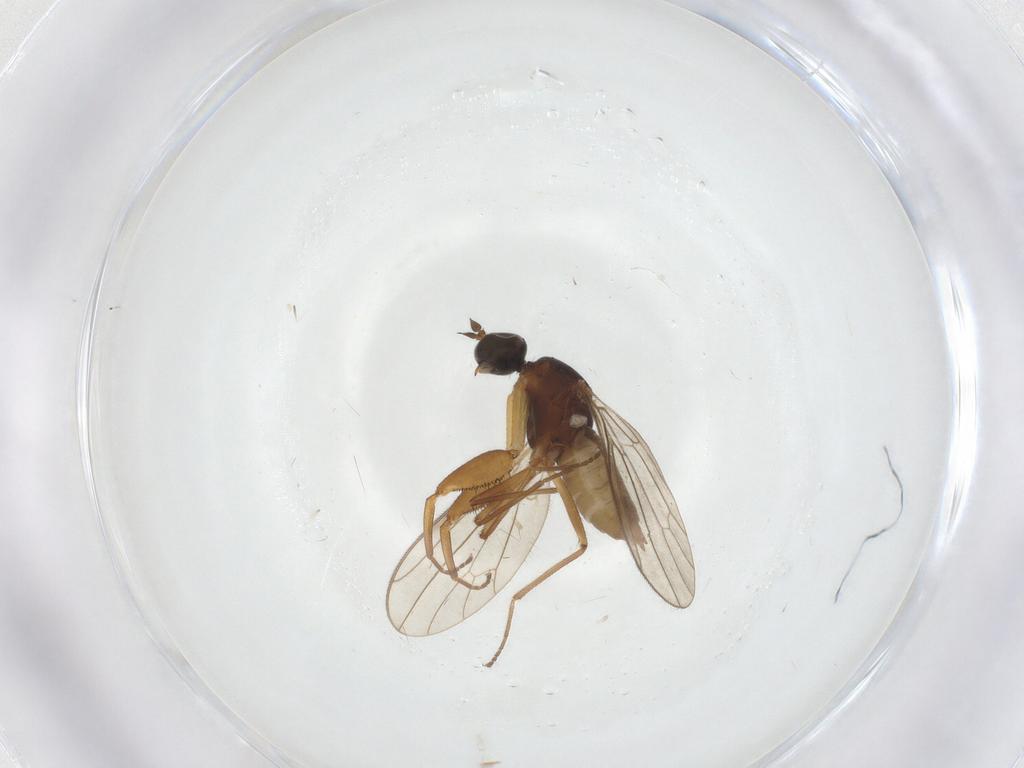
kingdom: Animalia
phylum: Arthropoda
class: Insecta
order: Diptera
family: Empididae
